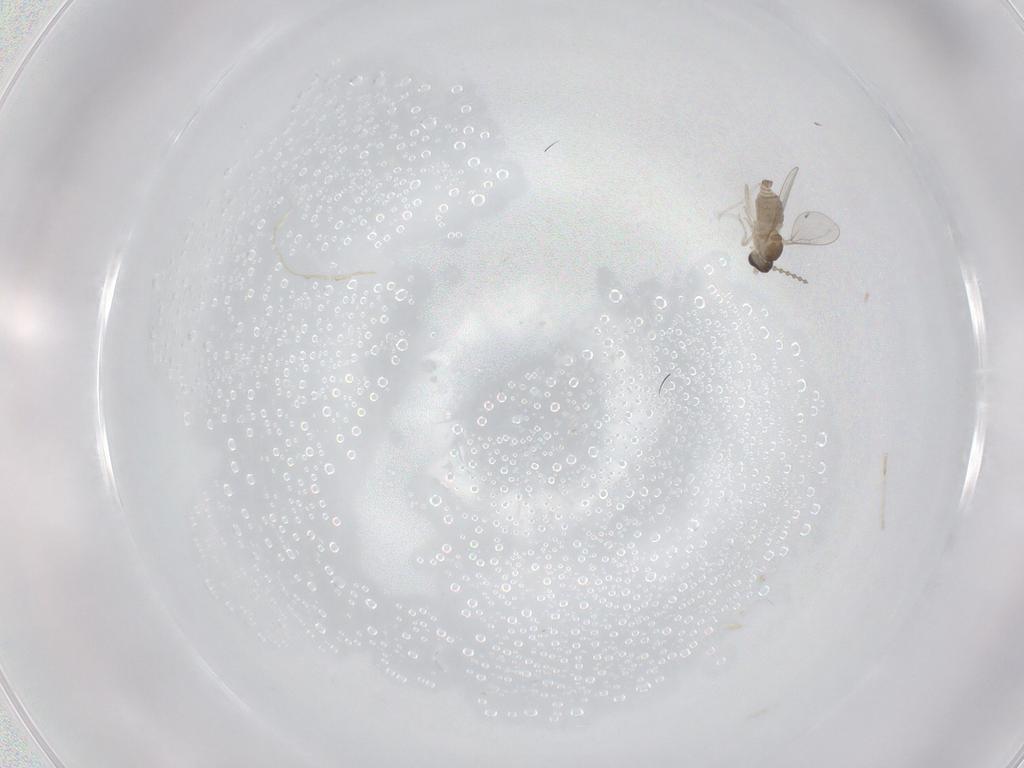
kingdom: Animalia
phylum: Arthropoda
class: Insecta
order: Diptera
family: Cecidomyiidae
